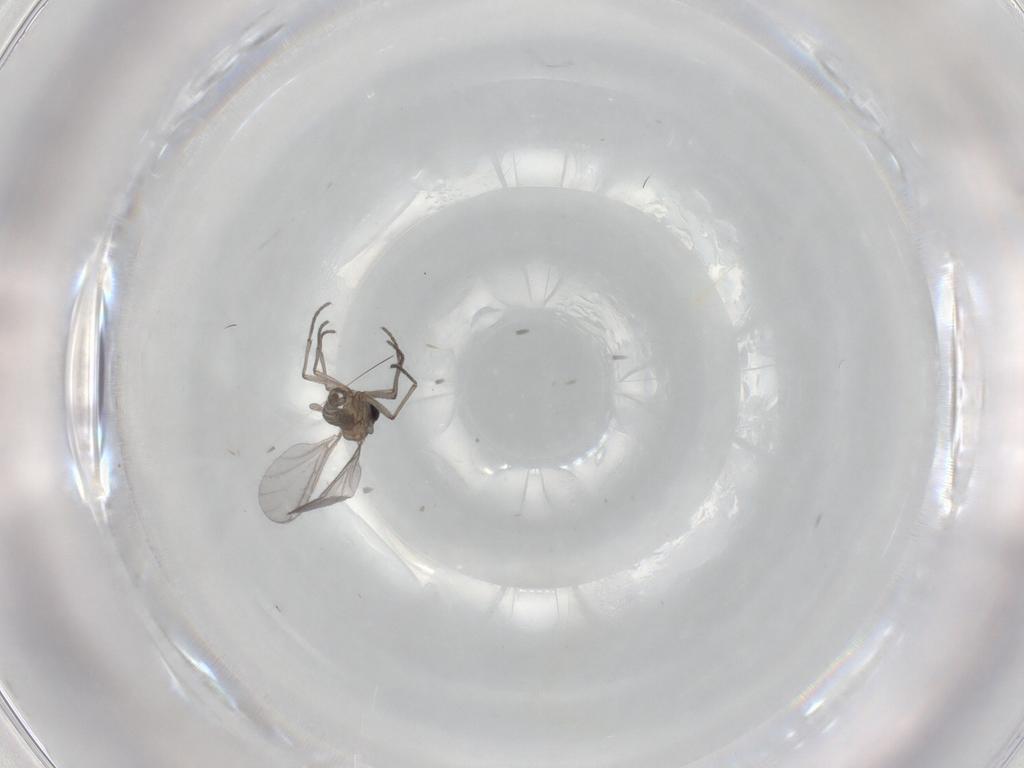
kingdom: Animalia
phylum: Arthropoda
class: Insecta
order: Diptera
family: Sciaridae
